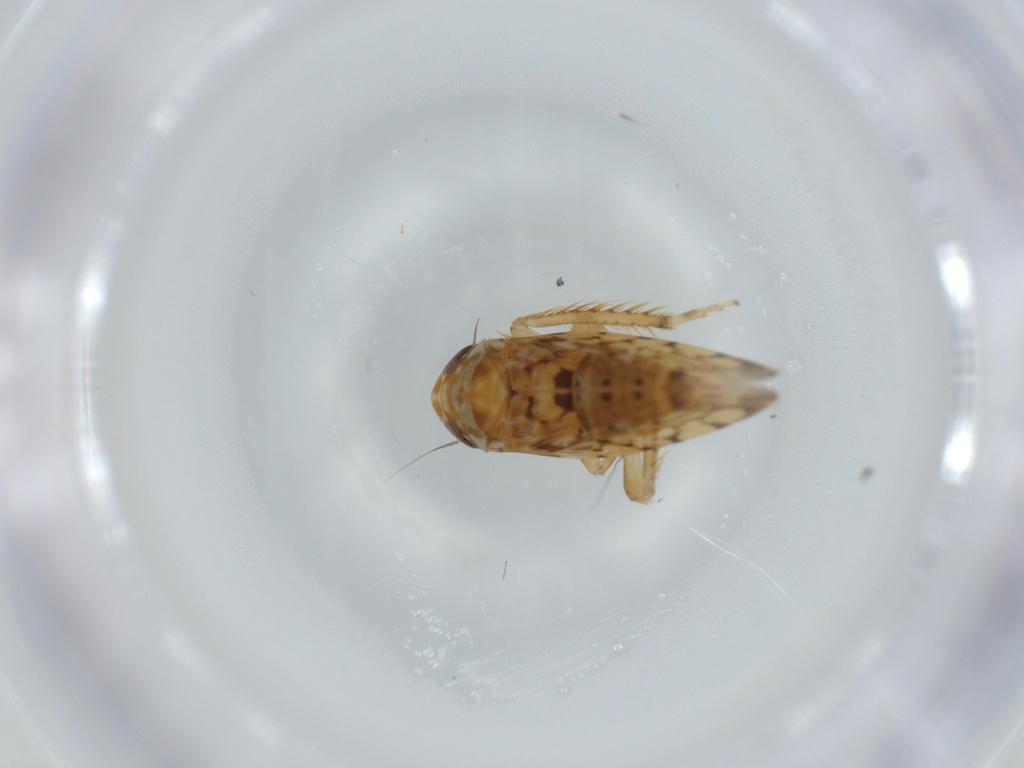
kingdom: Animalia
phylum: Arthropoda
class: Insecta
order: Hemiptera
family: Cicadellidae
